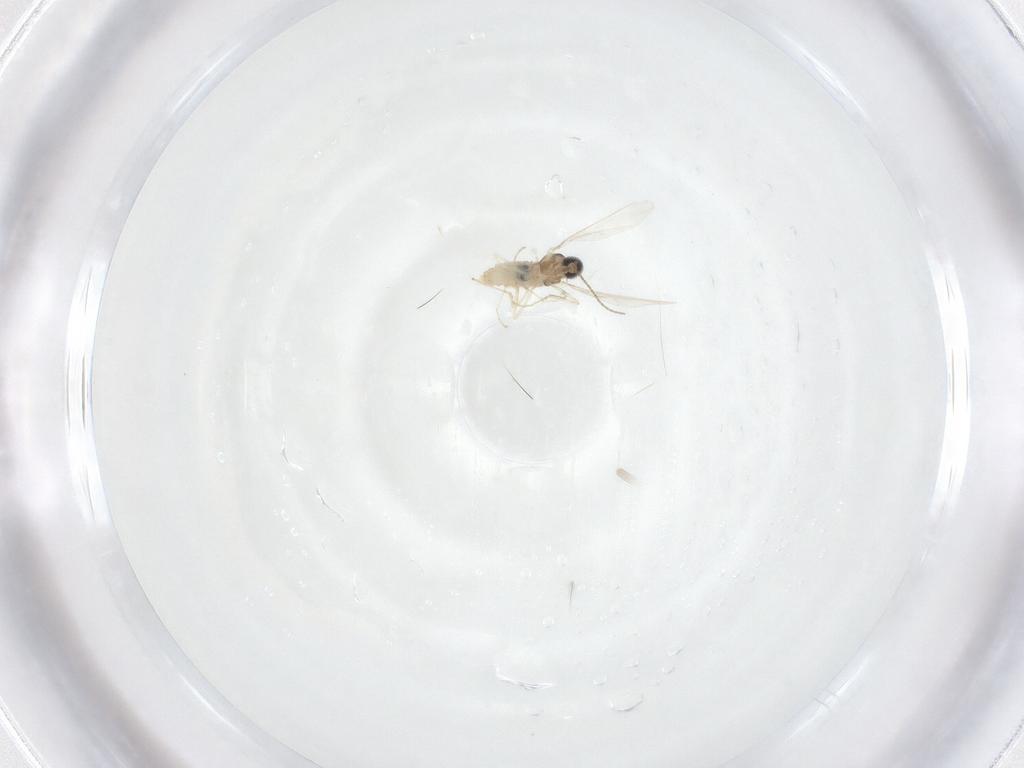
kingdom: Animalia
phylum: Arthropoda
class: Insecta
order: Diptera
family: Cecidomyiidae
